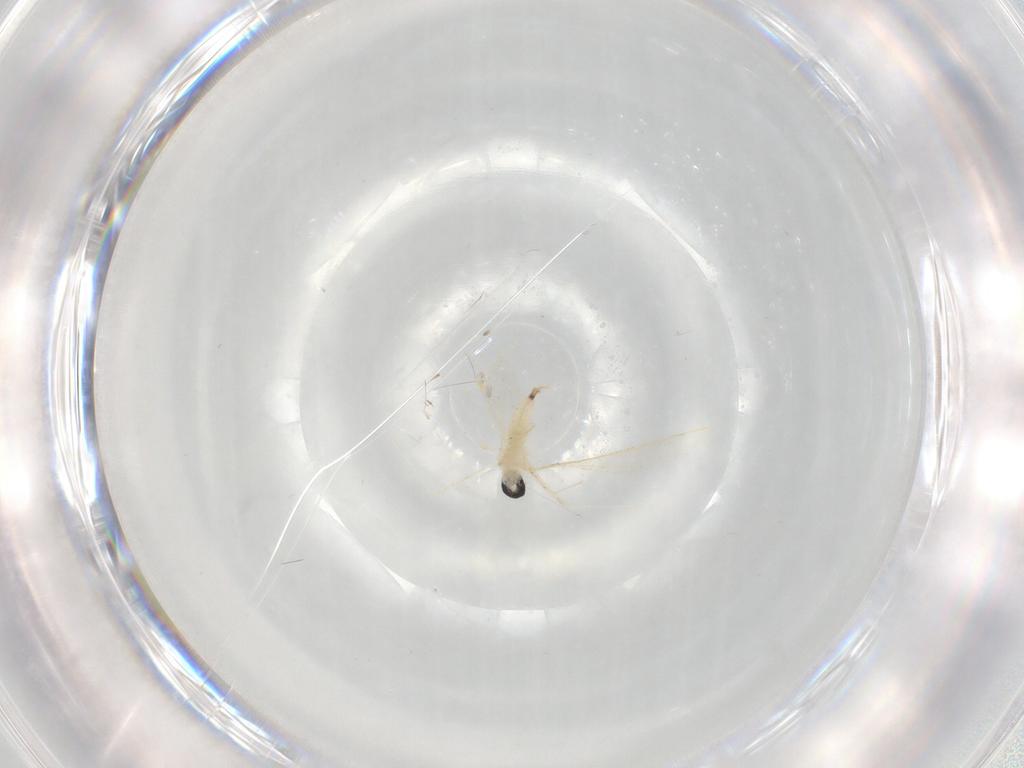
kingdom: Animalia
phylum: Arthropoda
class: Insecta
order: Diptera
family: Cecidomyiidae
